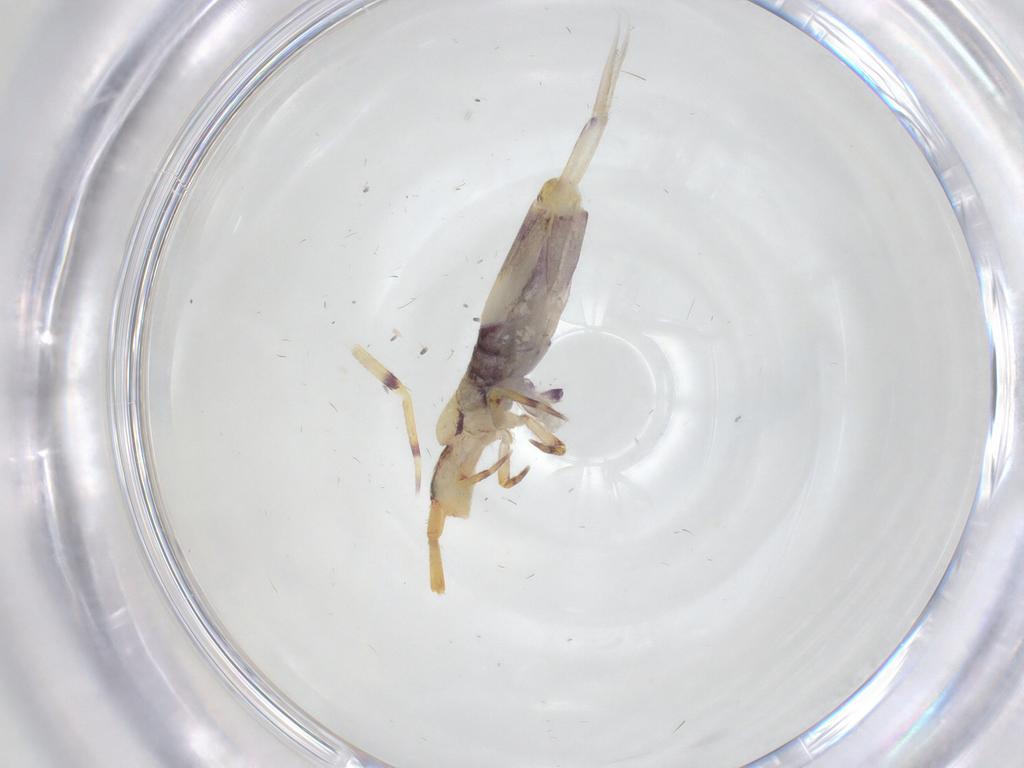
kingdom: Animalia
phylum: Arthropoda
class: Collembola
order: Entomobryomorpha
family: Entomobryidae
